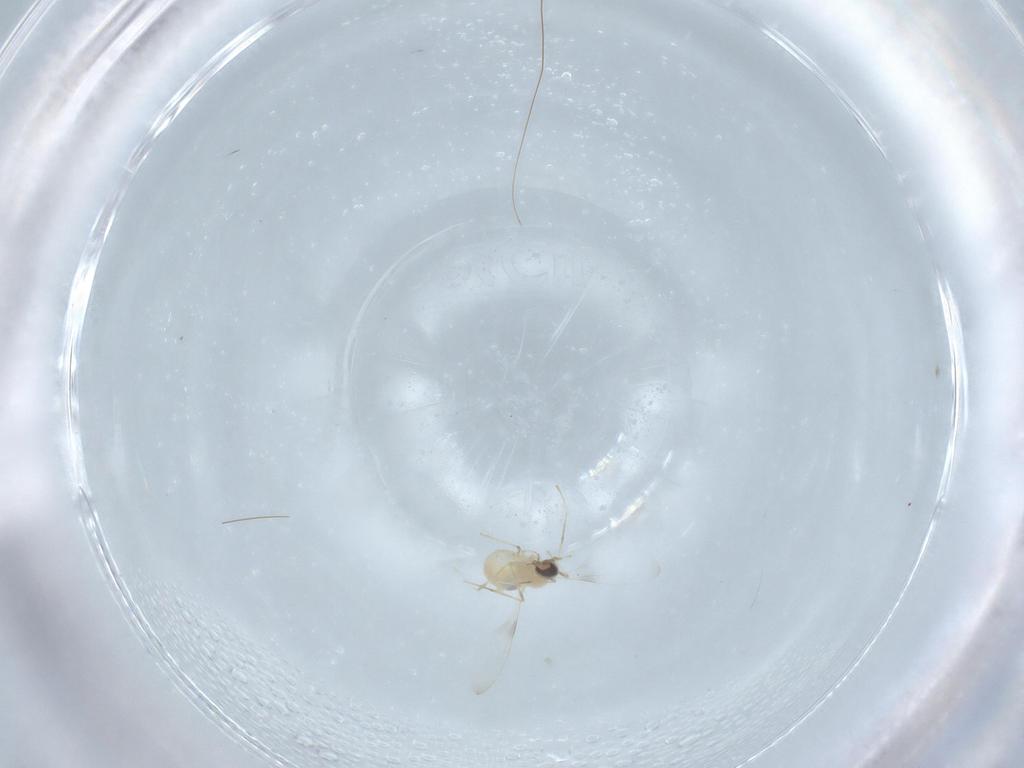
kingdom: Animalia
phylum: Arthropoda
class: Insecta
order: Diptera
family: Chironomidae
